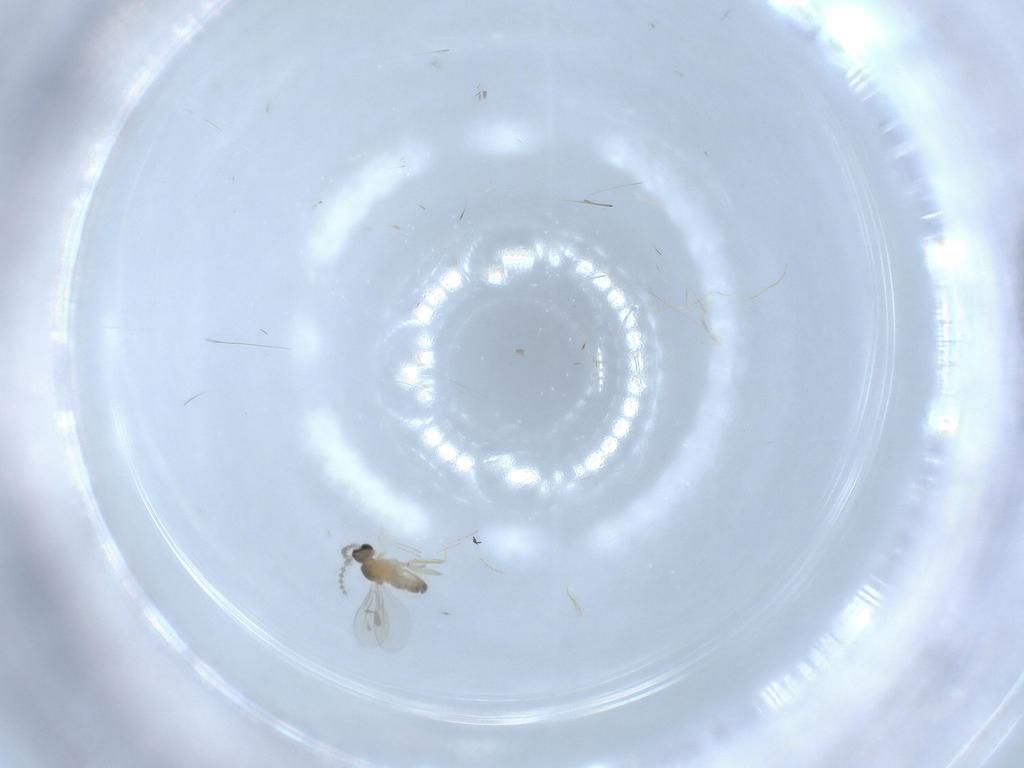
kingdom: Animalia
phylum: Arthropoda
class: Insecta
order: Diptera
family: Cecidomyiidae
